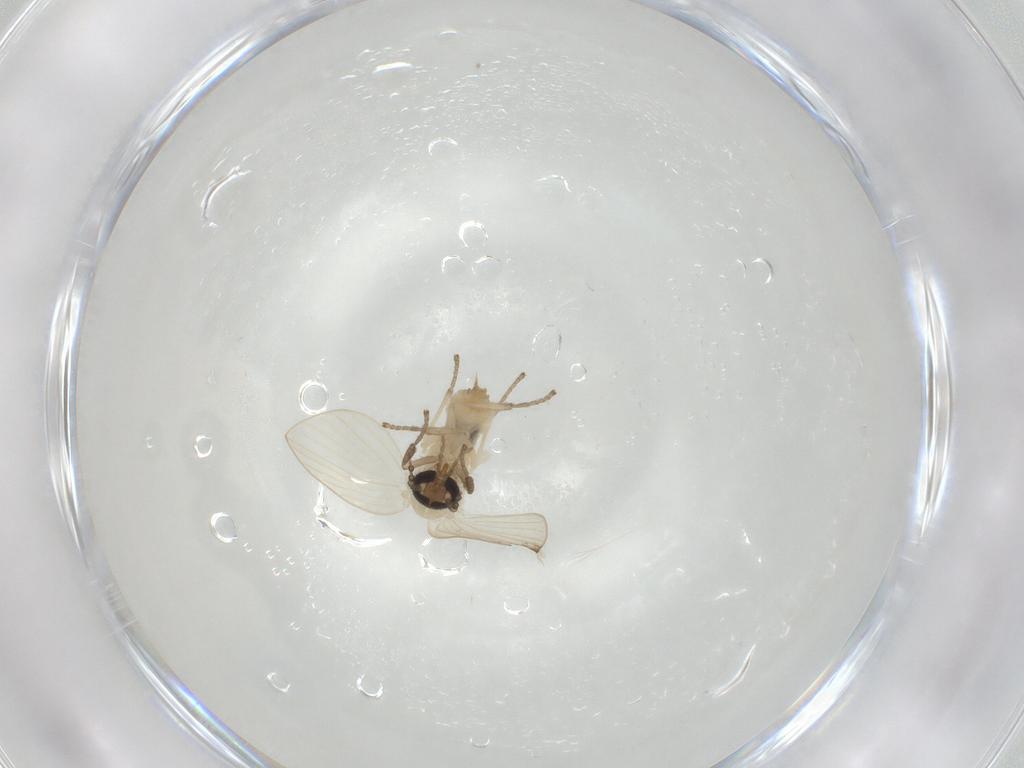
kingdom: Animalia
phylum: Arthropoda
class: Insecta
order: Diptera
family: Psychodidae
